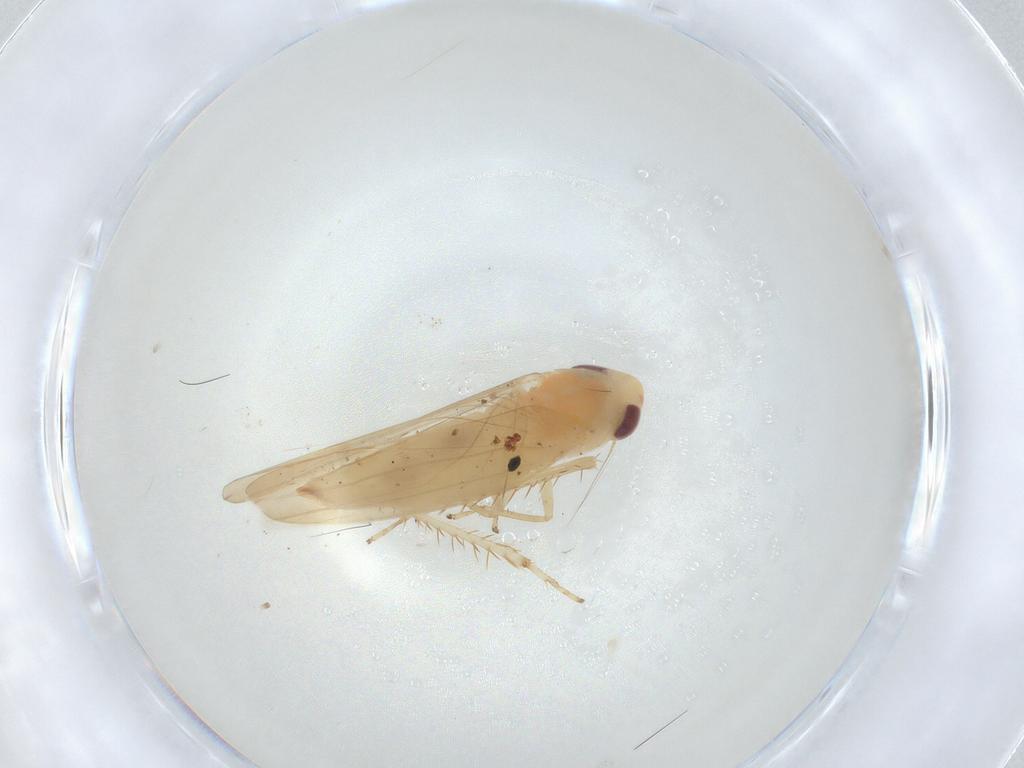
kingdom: Animalia
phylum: Arthropoda
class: Insecta
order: Hemiptera
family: Cicadellidae
